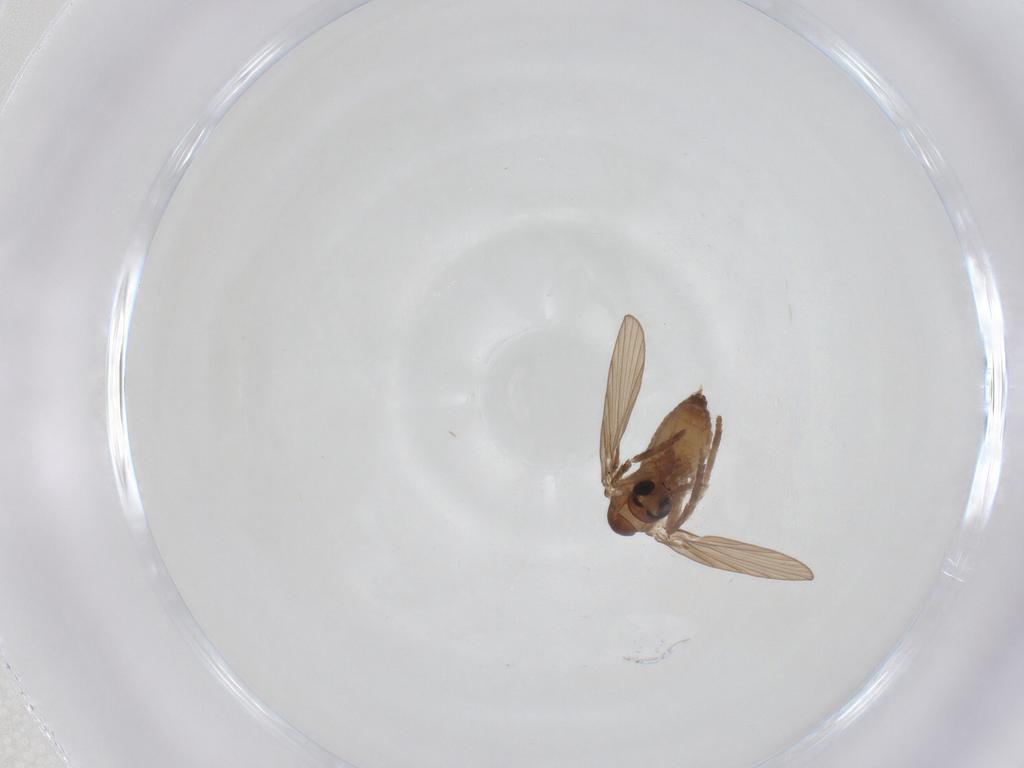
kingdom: Animalia
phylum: Arthropoda
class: Insecta
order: Diptera
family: Psychodidae
